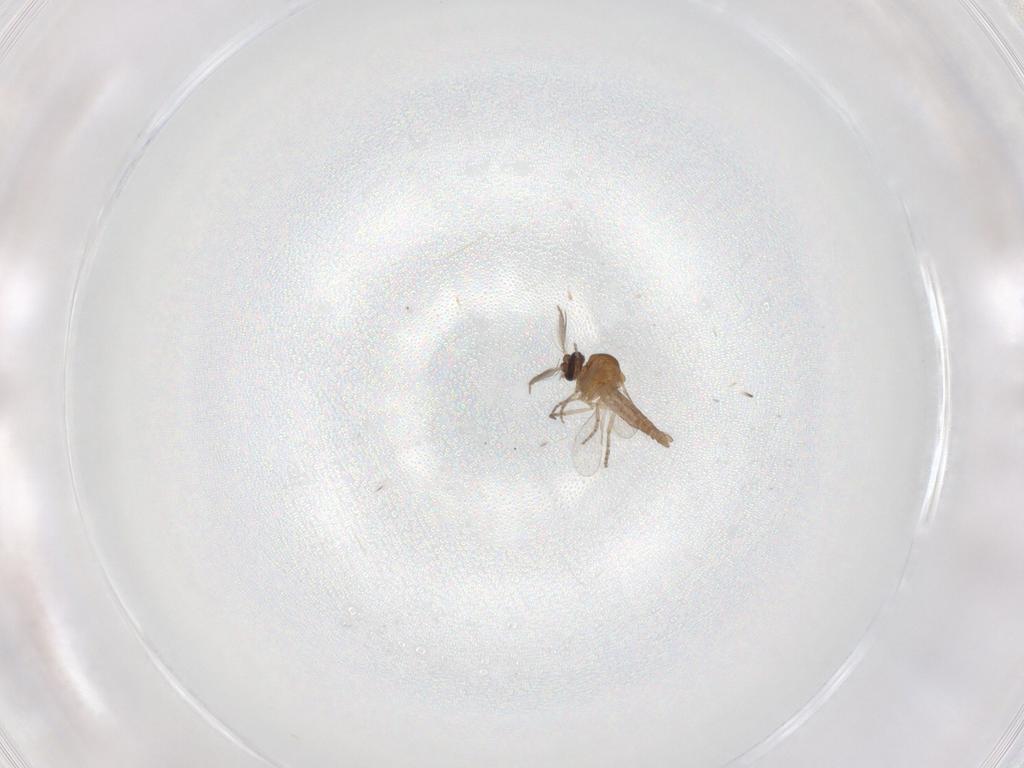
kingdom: Animalia
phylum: Arthropoda
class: Insecta
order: Diptera
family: Chironomidae
